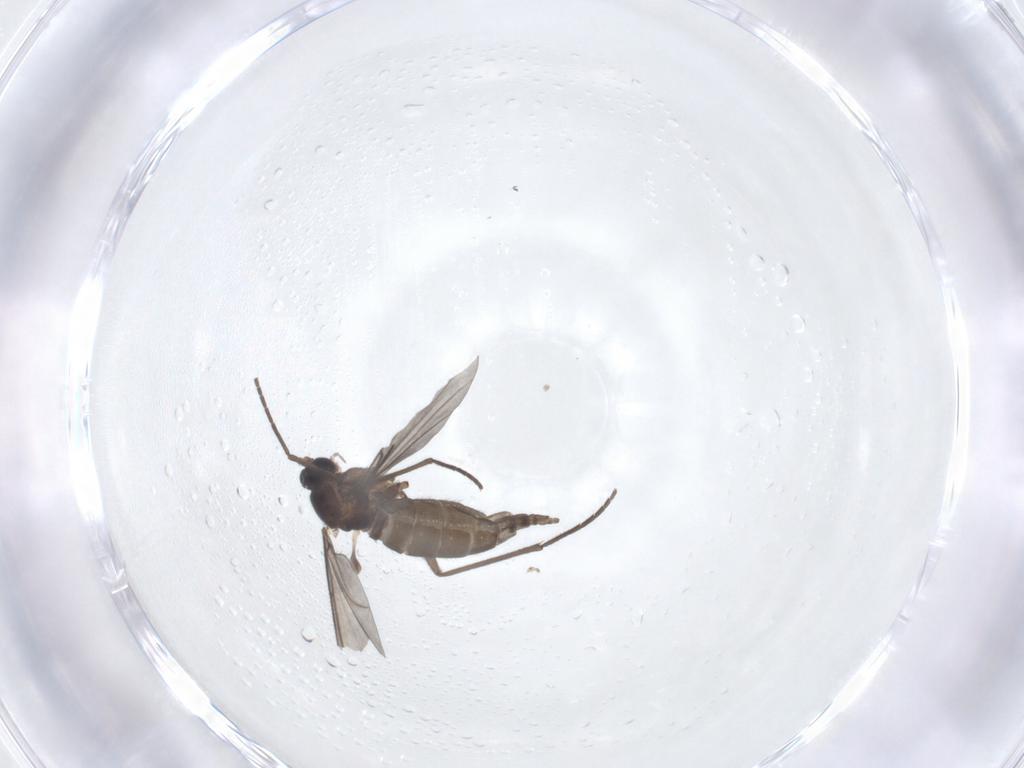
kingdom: Animalia
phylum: Arthropoda
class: Insecta
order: Diptera
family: Sciaridae
